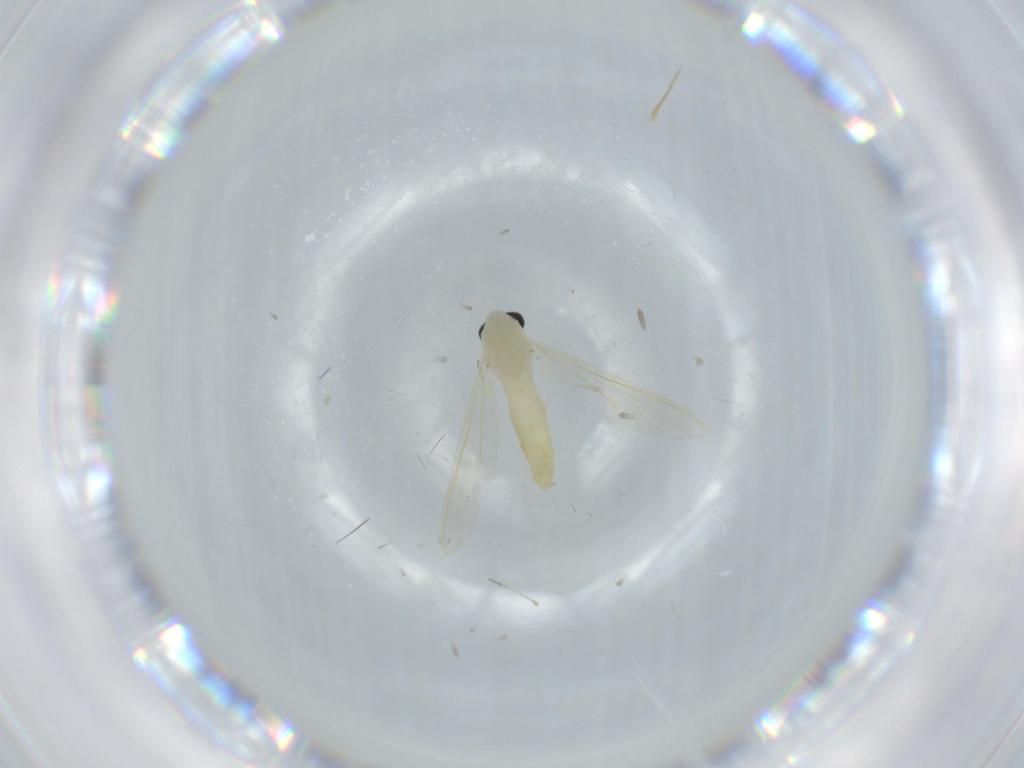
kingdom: Animalia
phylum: Arthropoda
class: Insecta
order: Diptera
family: Chironomidae
